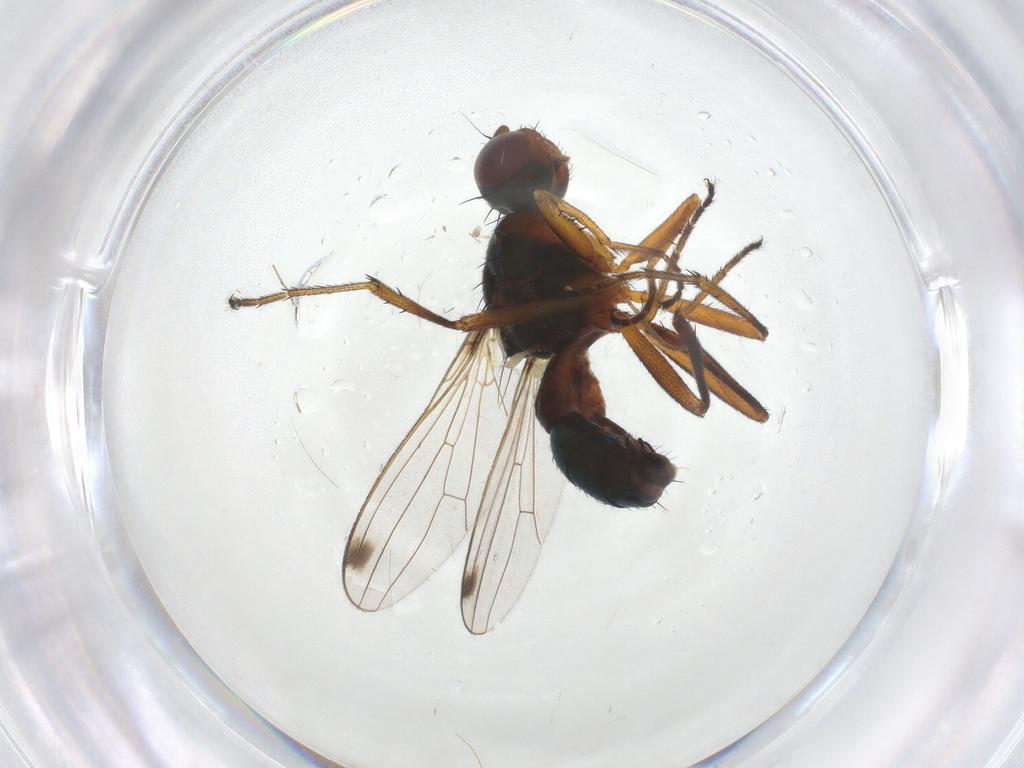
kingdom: Animalia
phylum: Arthropoda
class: Insecta
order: Diptera
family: Sepsidae
